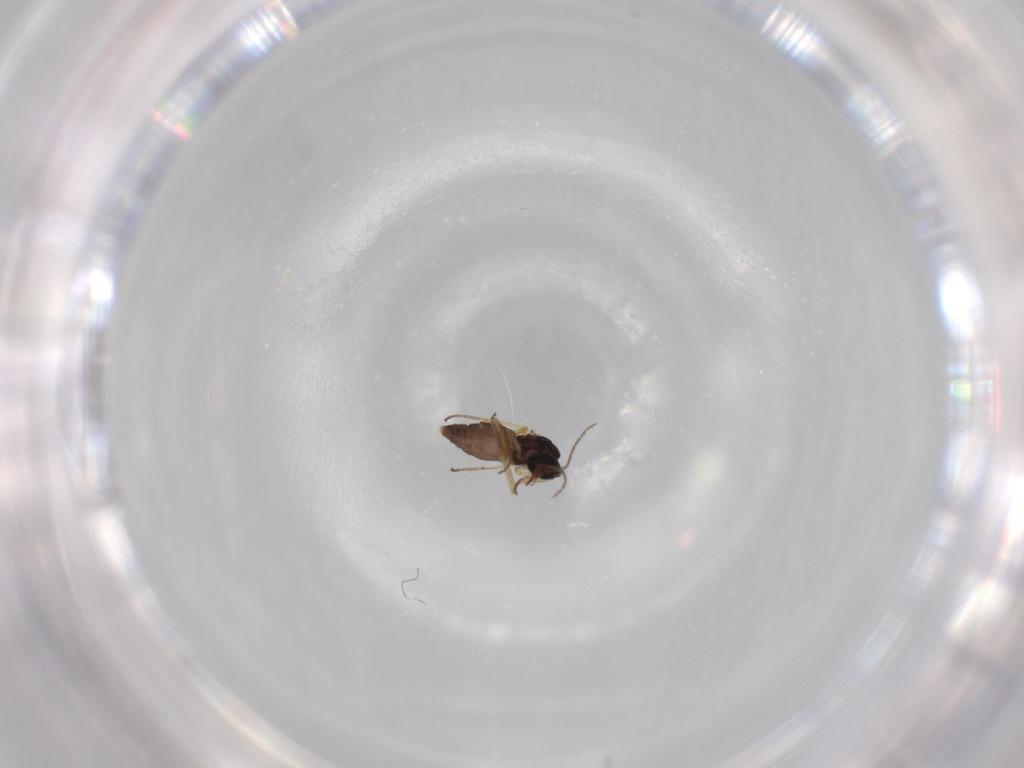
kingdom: Animalia
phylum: Arthropoda
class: Insecta
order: Diptera
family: Ceratopogonidae
